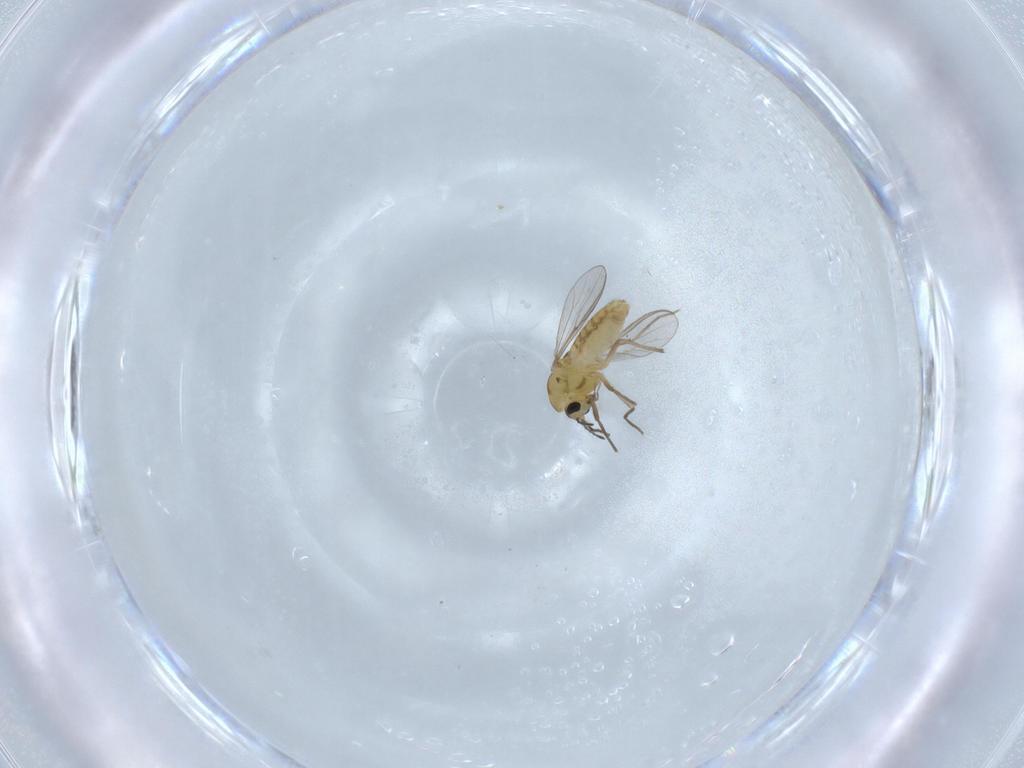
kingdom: Animalia
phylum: Arthropoda
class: Insecta
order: Diptera
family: Chironomidae
